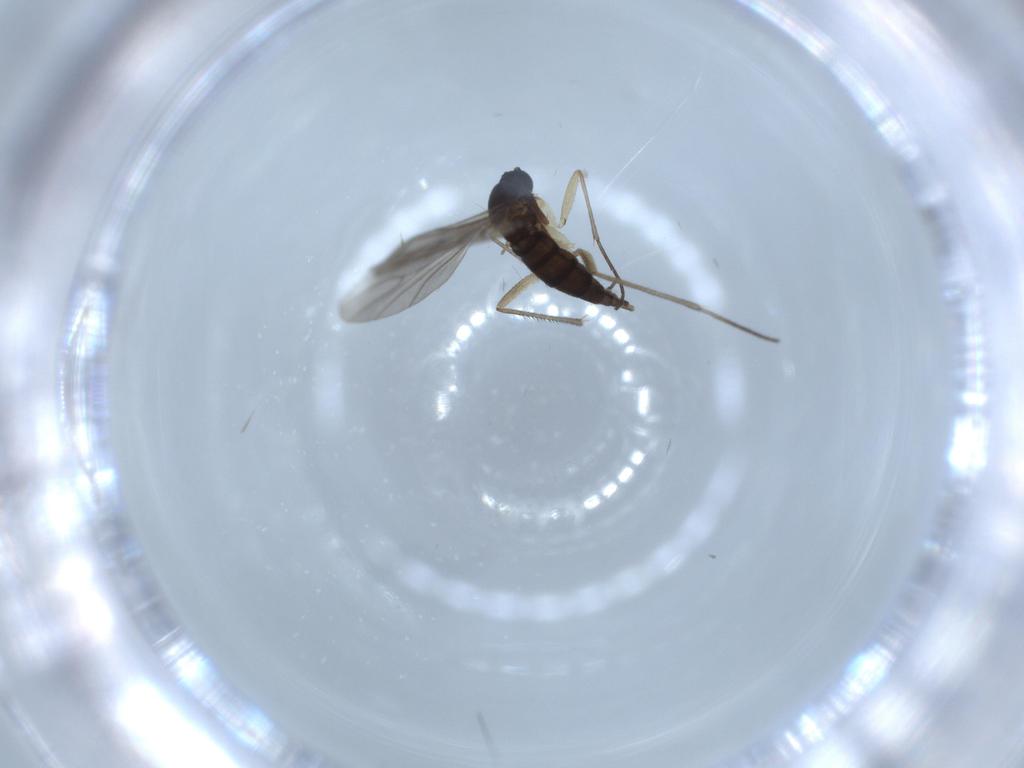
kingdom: Animalia
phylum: Arthropoda
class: Insecta
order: Diptera
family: Sciaridae
